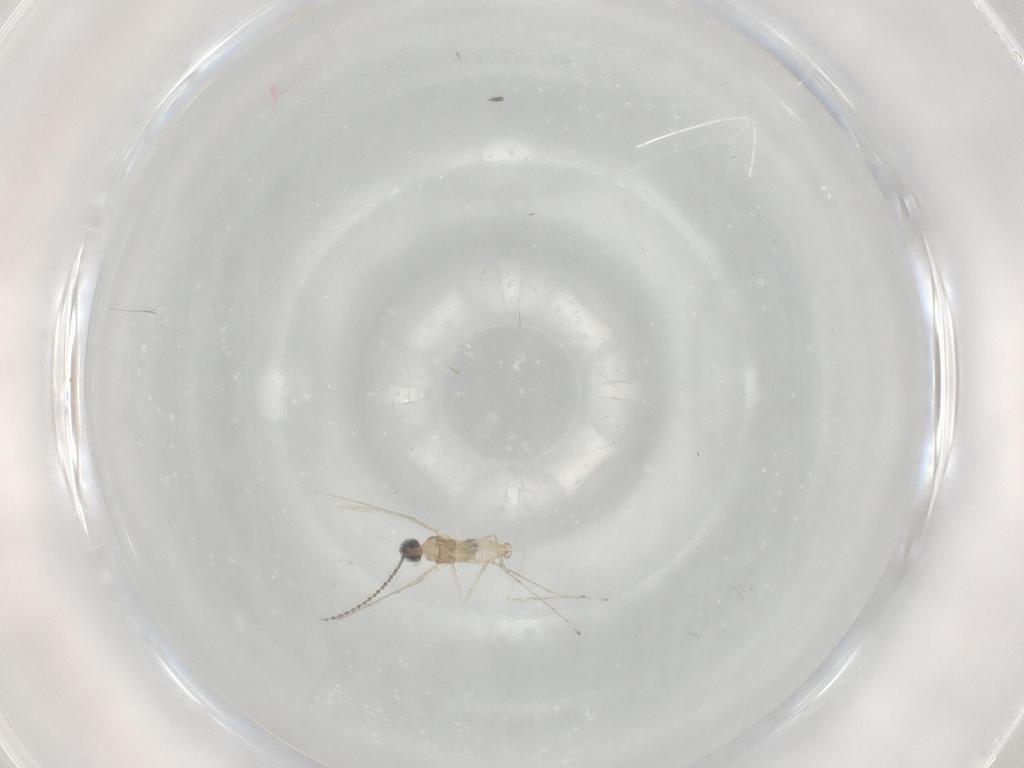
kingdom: Animalia
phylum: Arthropoda
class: Insecta
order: Diptera
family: Cecidomyiidae
